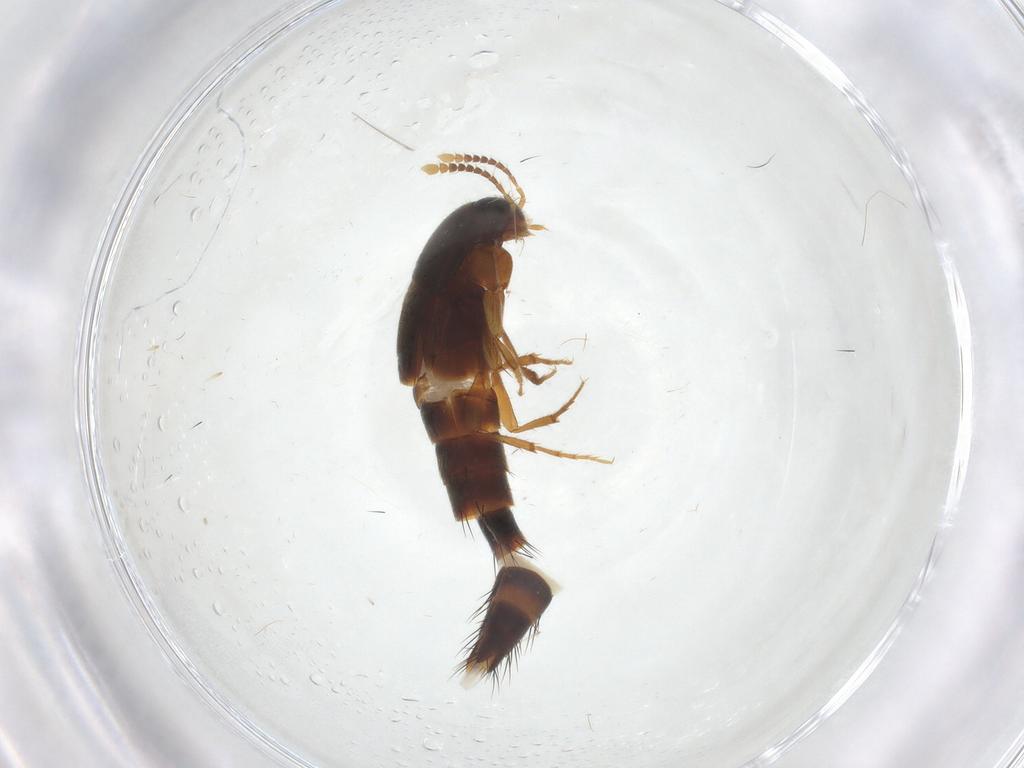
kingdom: Animalia
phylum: Arthropoda
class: Insecta
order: Coleoptera
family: Staphylinidae
